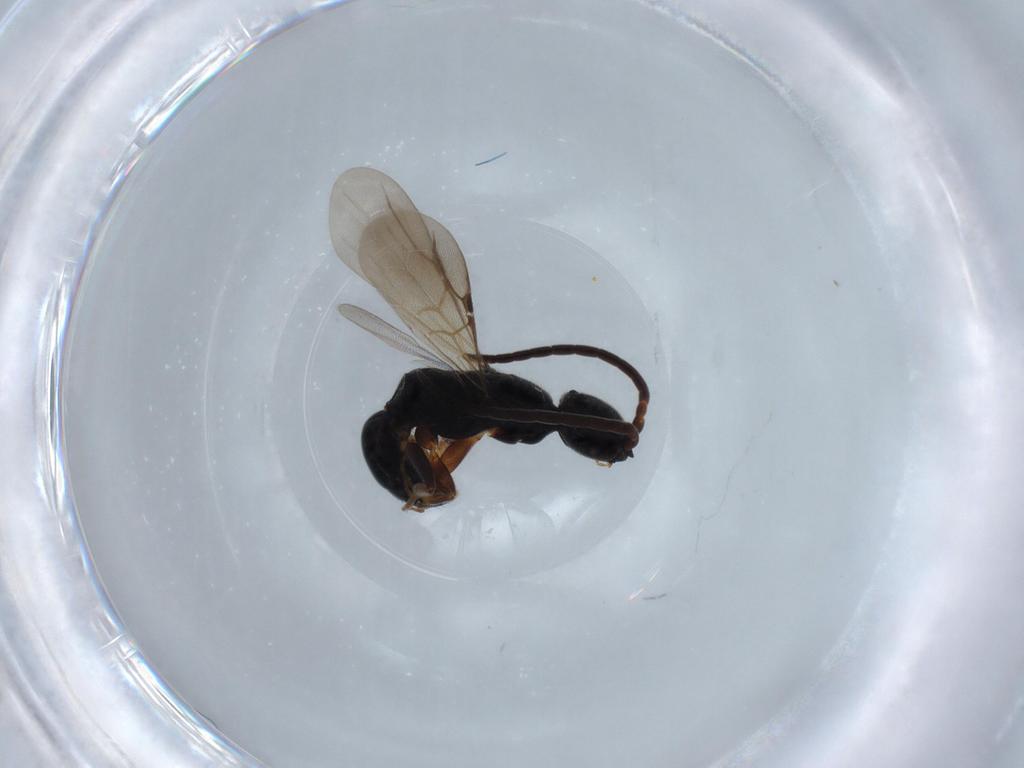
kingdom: Animalia
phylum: Arthropoda
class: Insecta
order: Hymenoptera
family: Bethylidae
